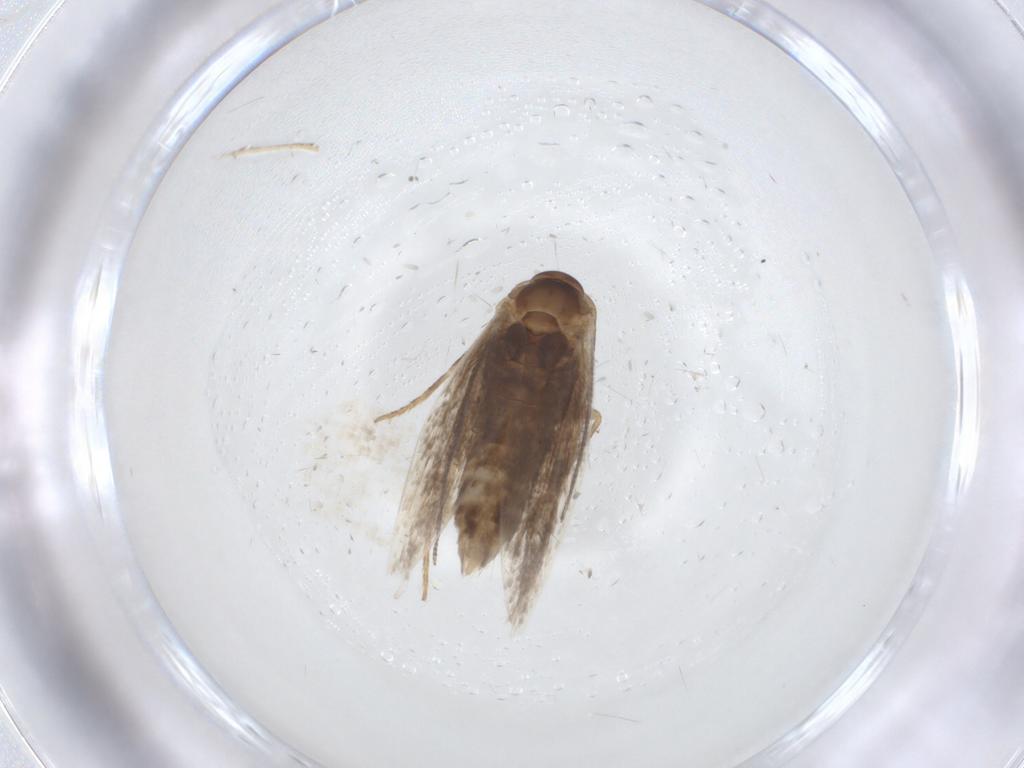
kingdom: Animalia
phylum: Arthropoda
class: Insecta
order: Lepidoptera
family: Elachistidae
